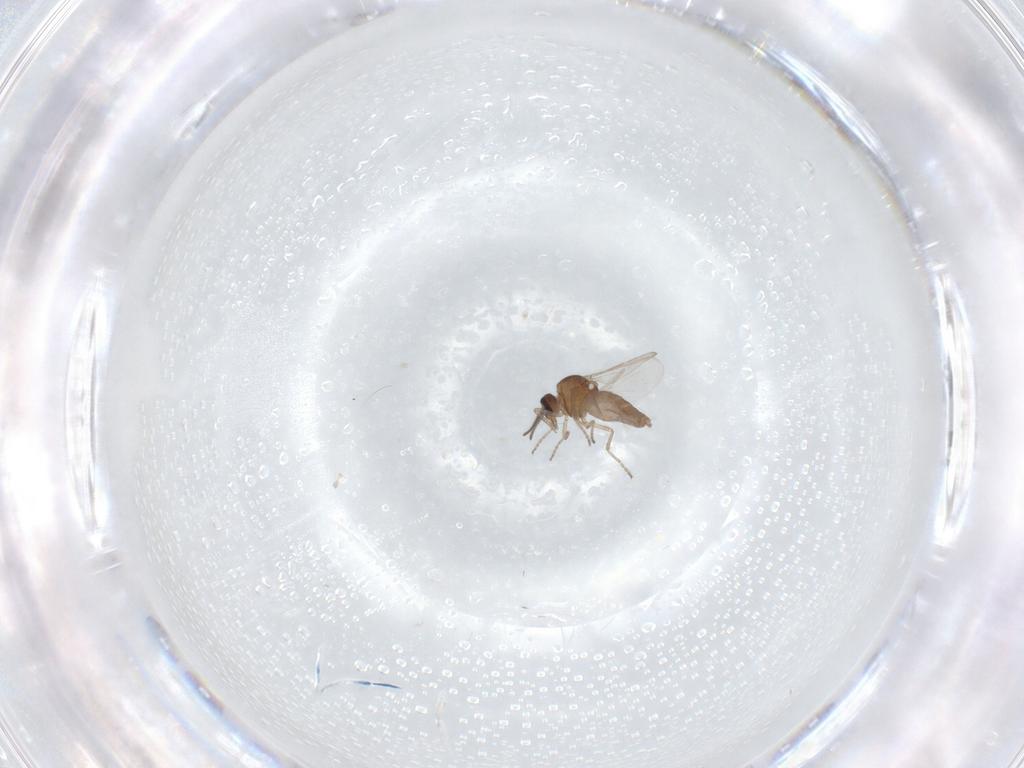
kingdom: Animalia
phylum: Arthropoda
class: Insecta
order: Diptera
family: Ceratopogonidae
